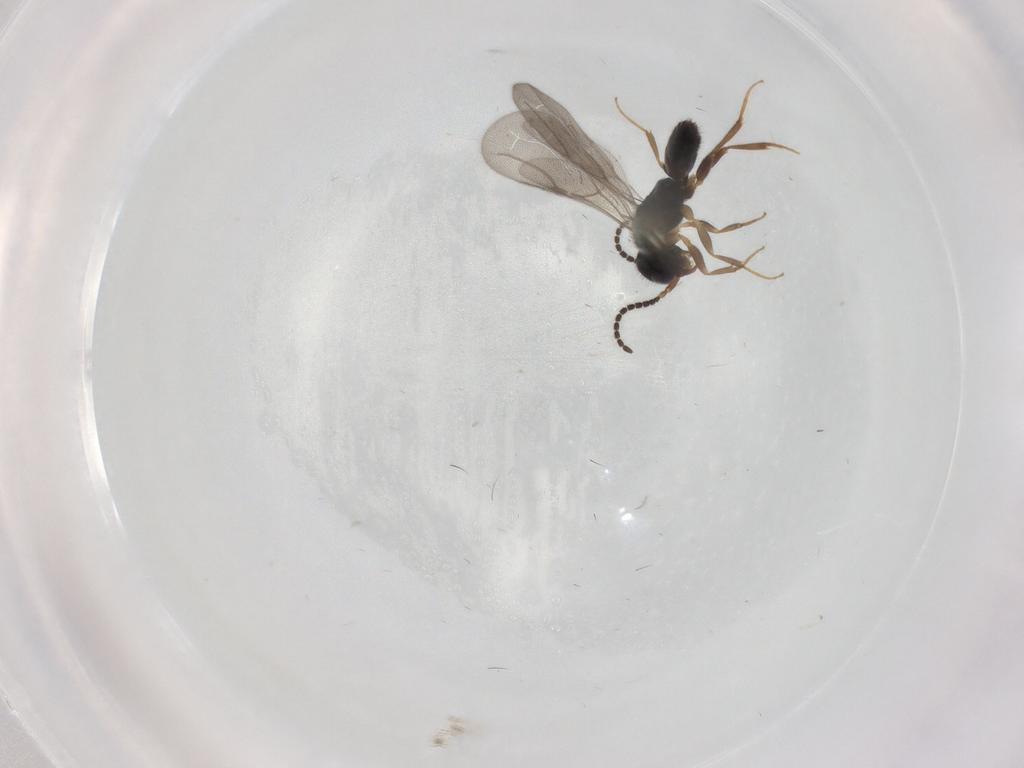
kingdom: Animalia
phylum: Arthropoda
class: Insecta
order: Hymenoptera
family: Bethylidae
